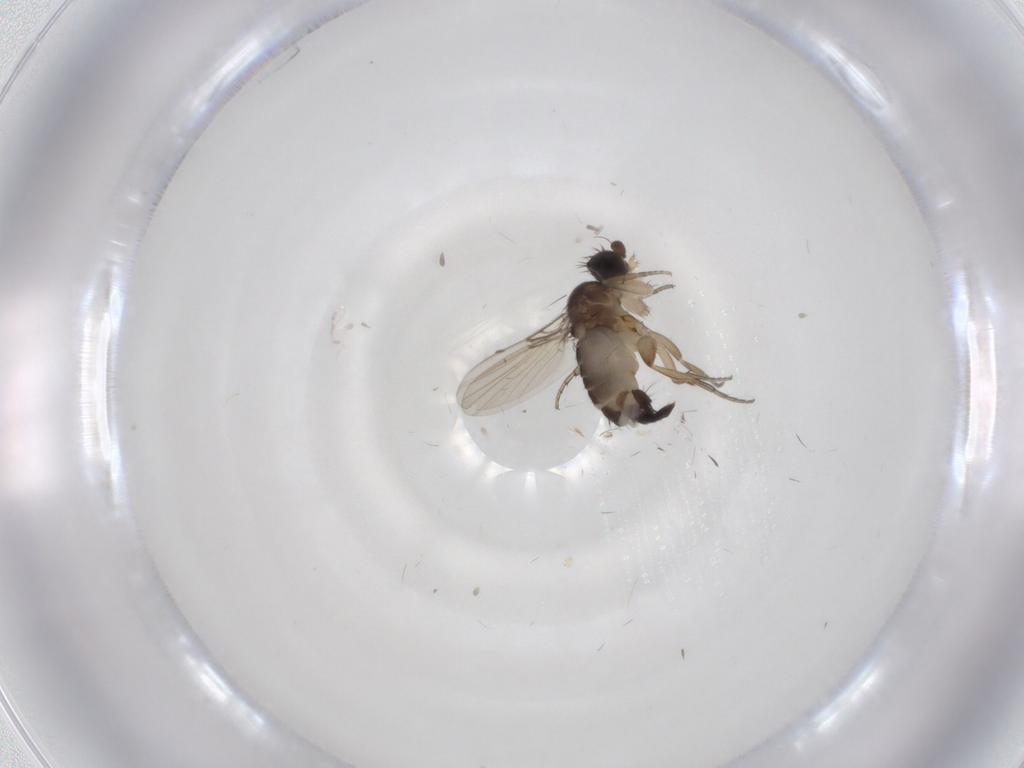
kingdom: Animalia
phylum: Arthropoda
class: Insecta
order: Diptera
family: Phoridae
